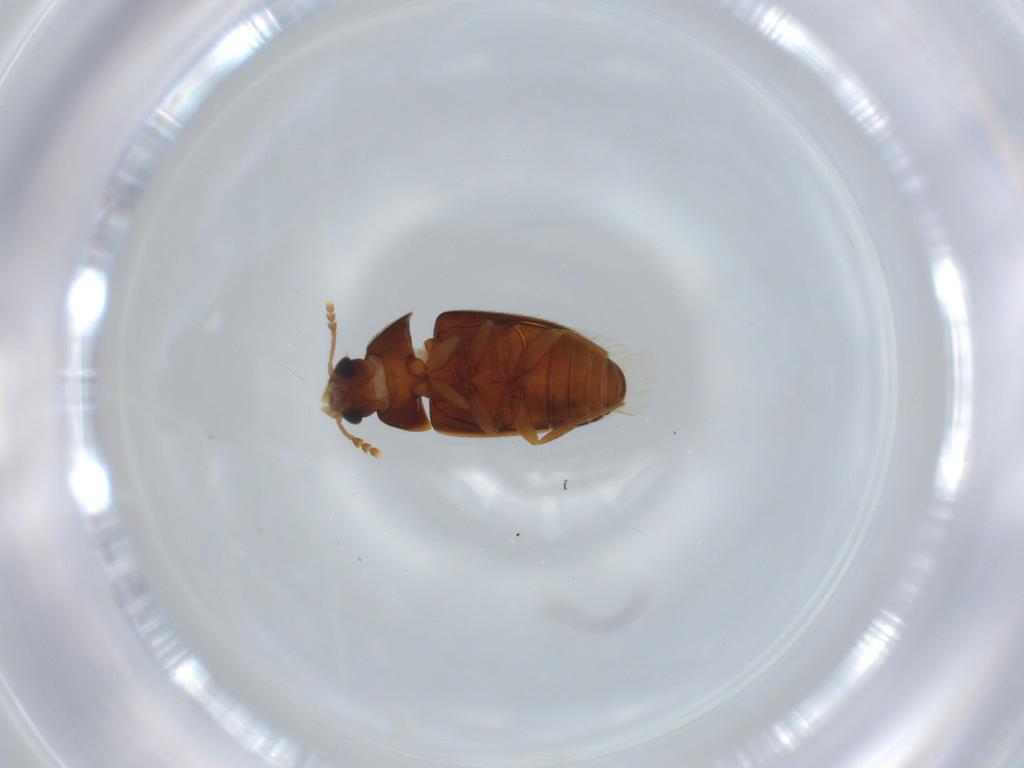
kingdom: Animalia
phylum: Arthropoda
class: Insecta
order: Coleoptera
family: Mycetophagidae
